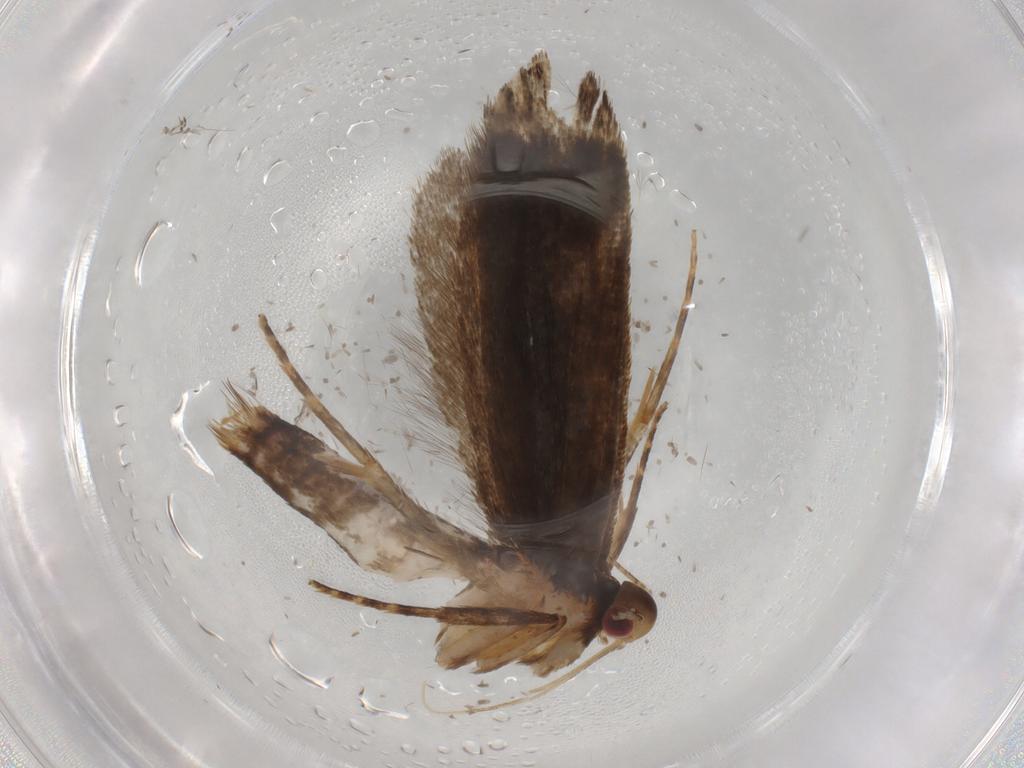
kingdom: Animalia
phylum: Arthropoda
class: Insecta
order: Lepidoptera
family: Gelechiidae
